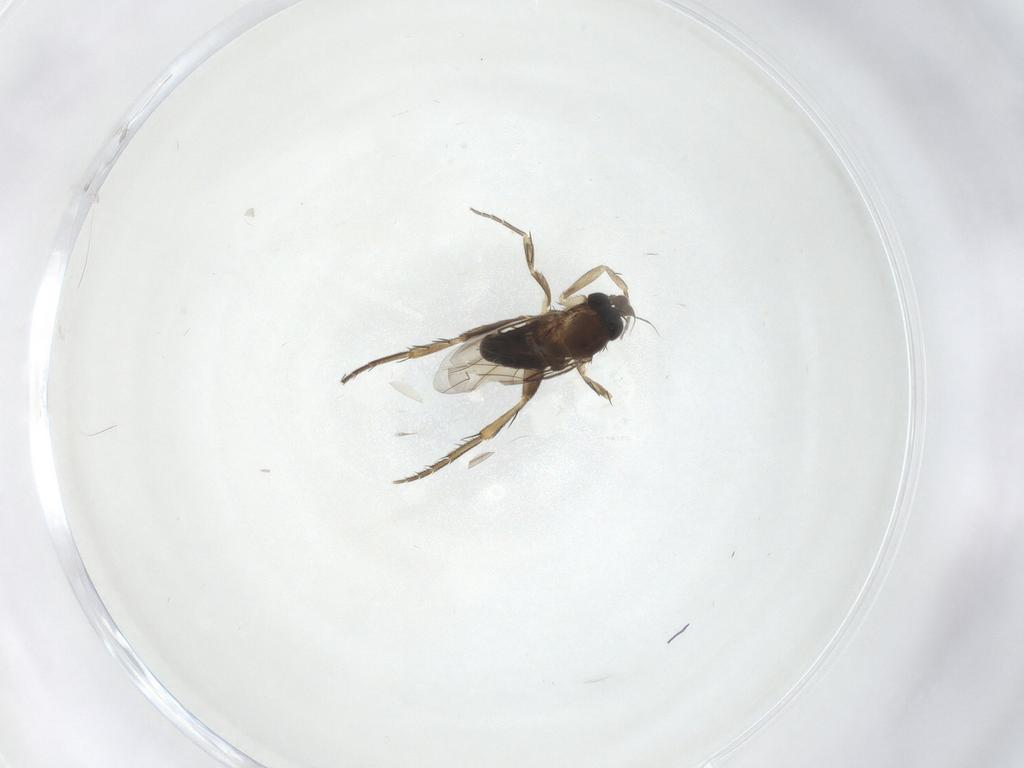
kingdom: Animalia
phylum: Arthropoda
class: Insecta
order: Diptera
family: Phoridae
